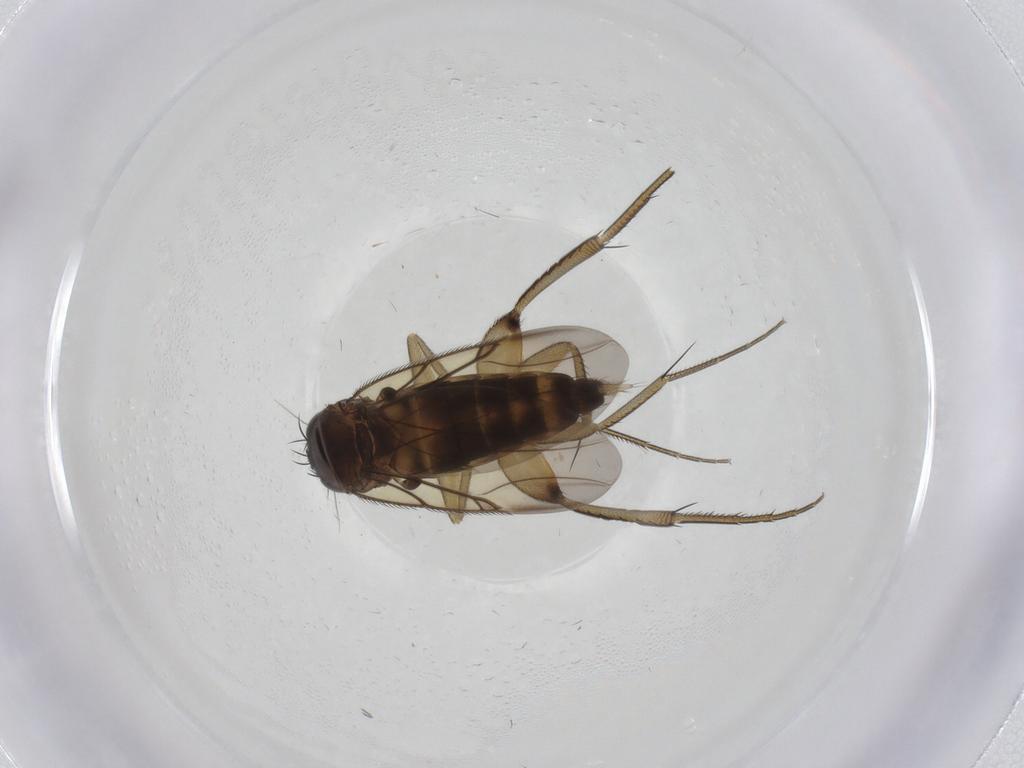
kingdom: Animalia
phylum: Arthropoda
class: Insecta
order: Diptera
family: Phoridae
